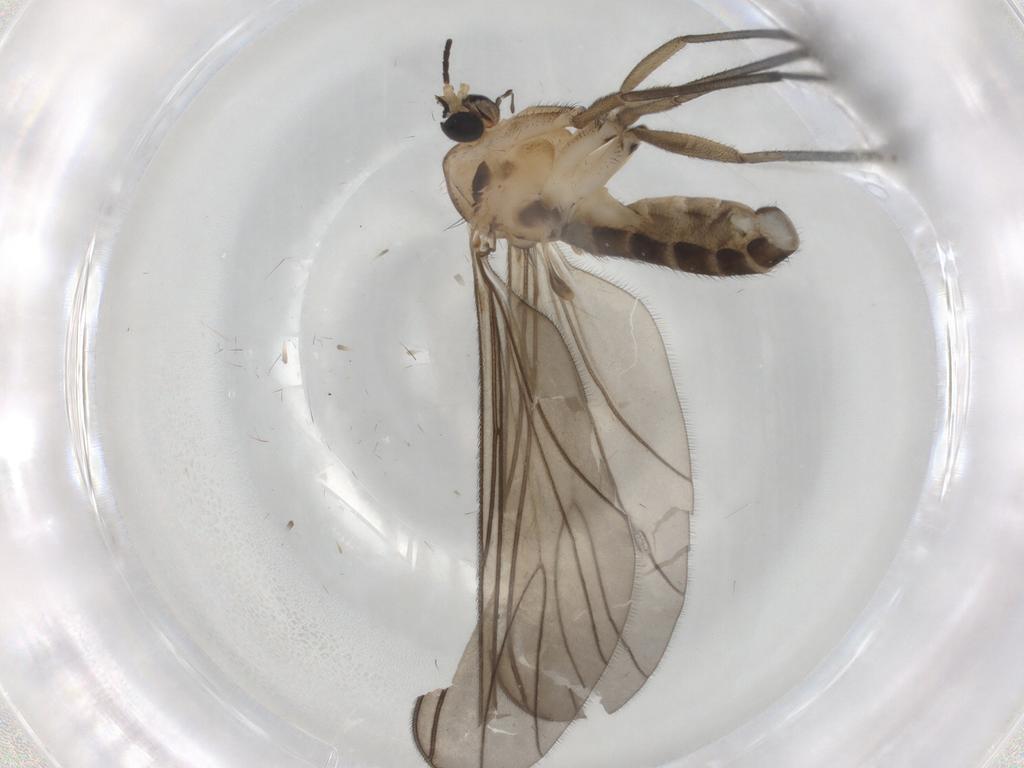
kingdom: Animalia
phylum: Arthropoda
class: Insecta
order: Diptera
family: Sciaridae
